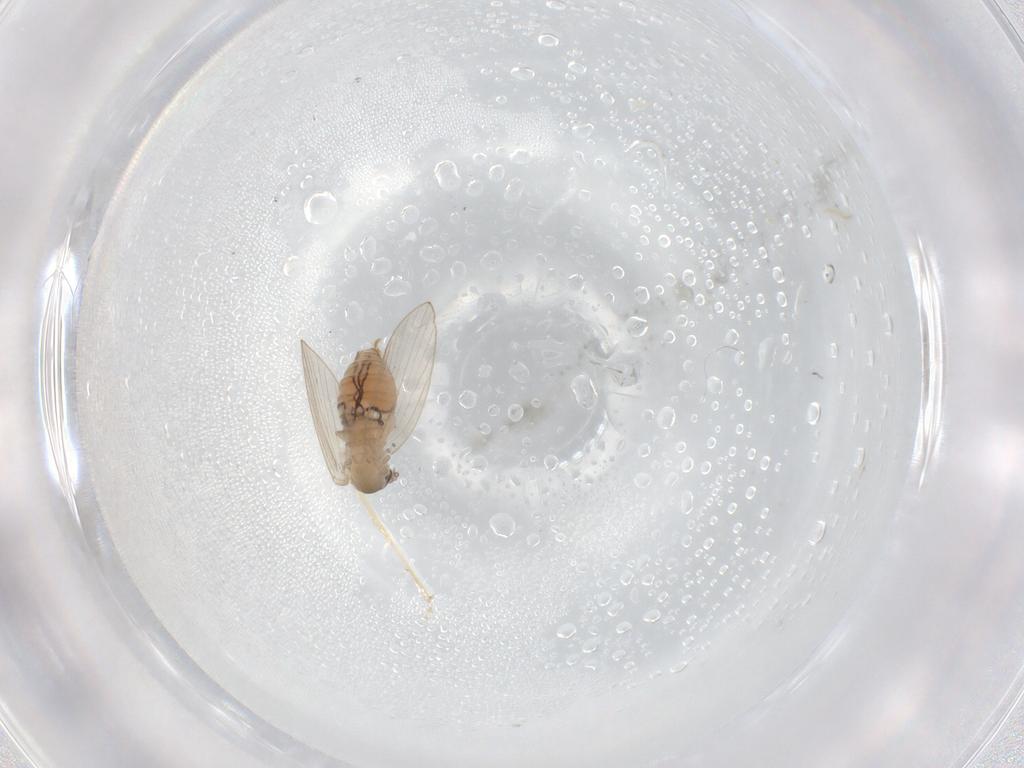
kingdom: Animalia
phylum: Arthropoda
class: Insecta
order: Diptera
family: Psychodidae
